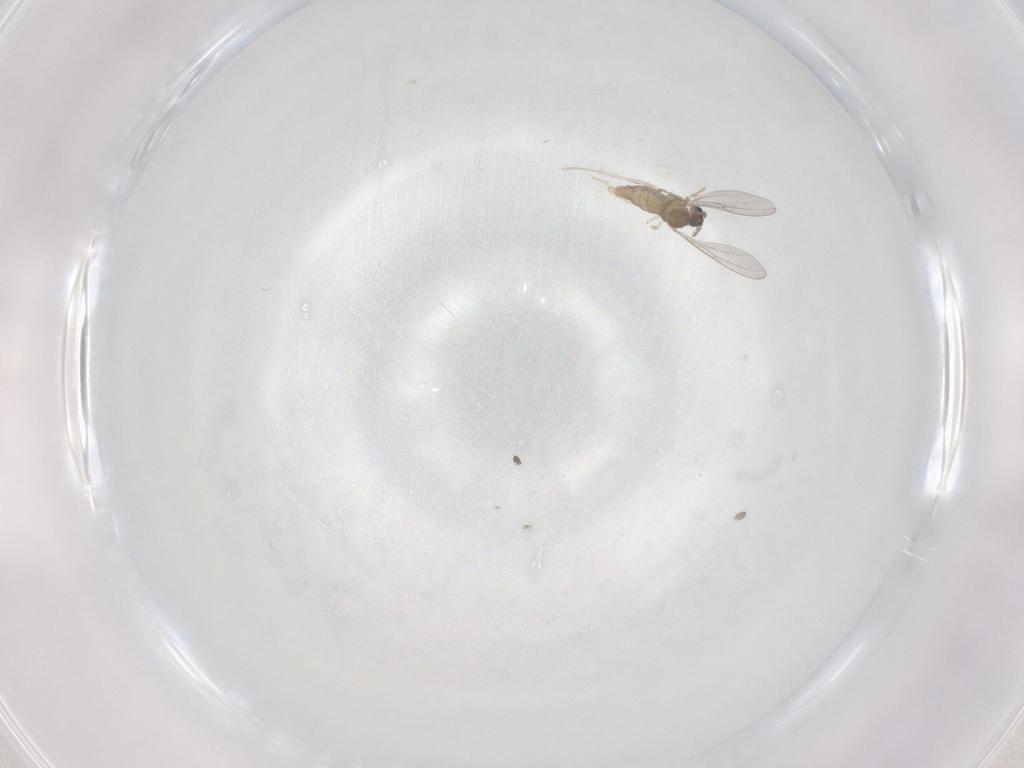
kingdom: Animalia
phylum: Arthropoda
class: Insecta
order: Diptera
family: Cecidomyiidae
